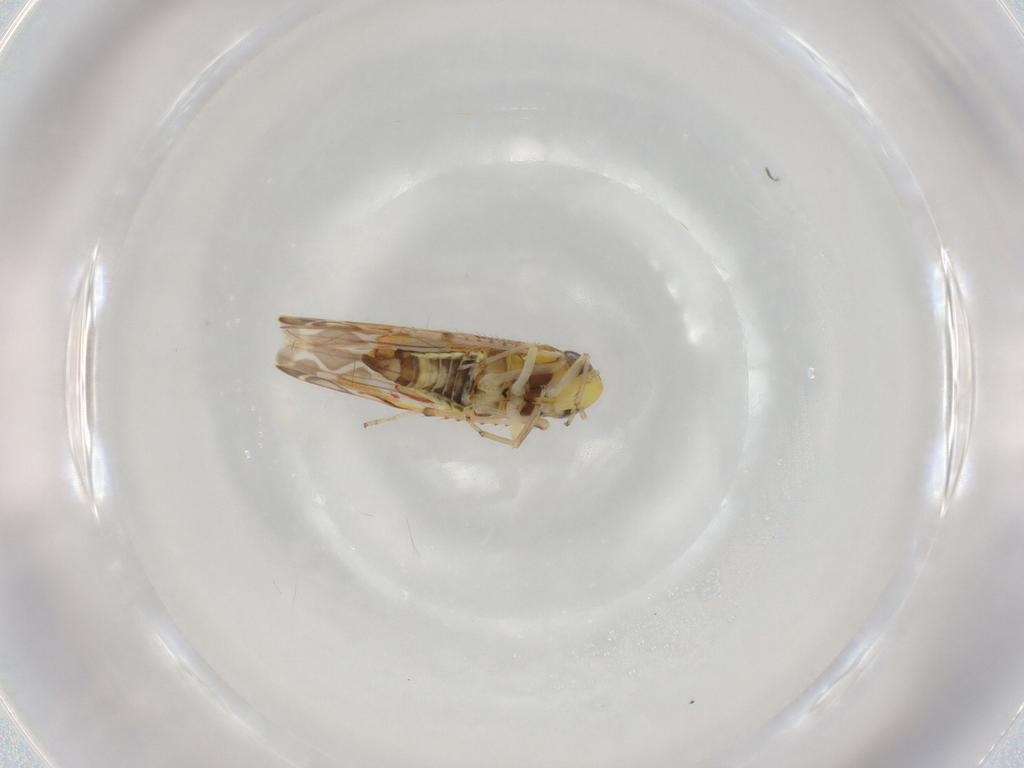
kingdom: Animalia
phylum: Arthropoda
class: Insecta
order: Hemiptera
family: Cicadellidae
